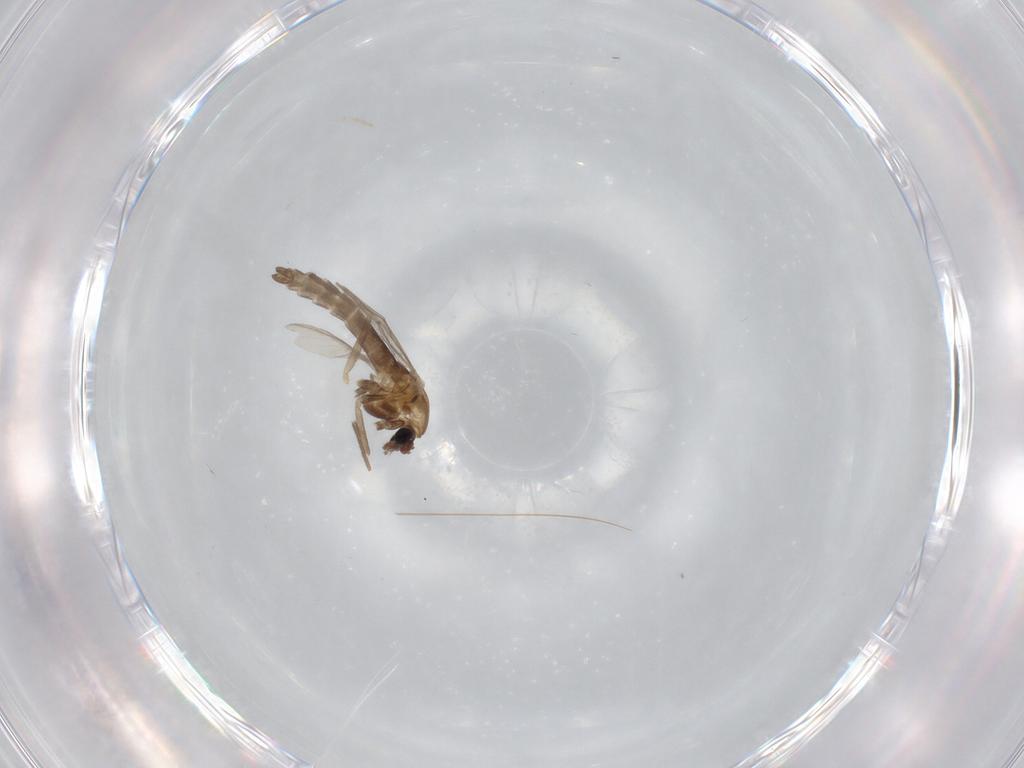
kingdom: Animalia
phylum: Arthropoda
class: Insecta
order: Diptera
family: Chironomidae
